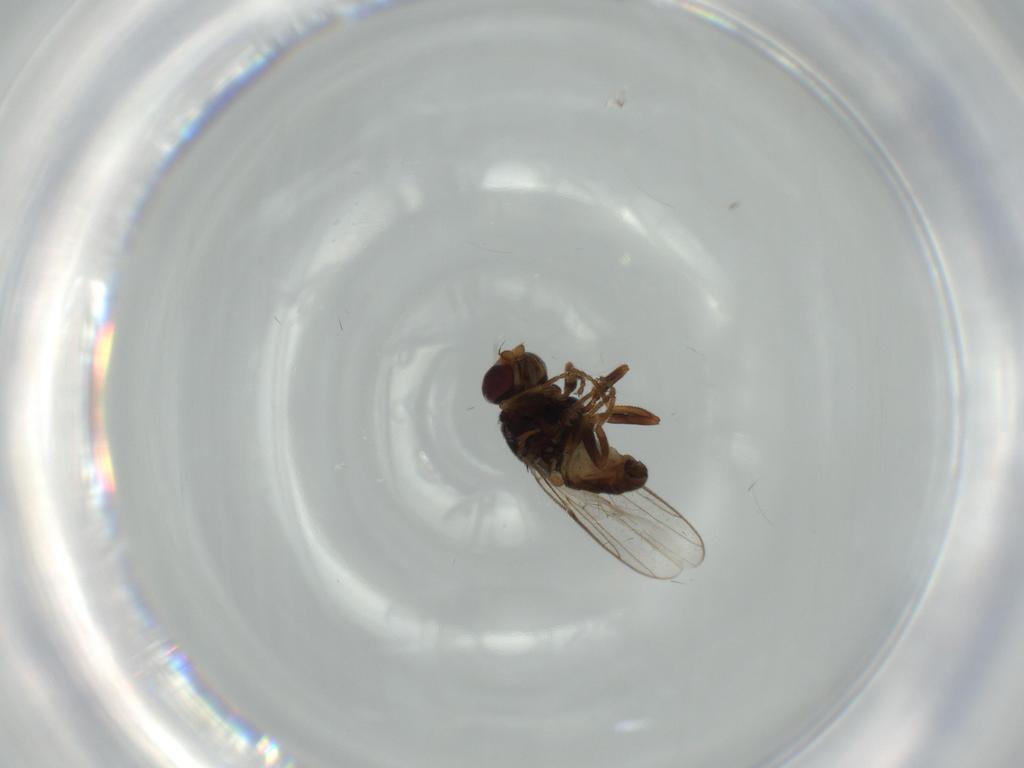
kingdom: Animalia
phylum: Arthropoda
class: Insecta
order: Diptera
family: Chloropidae
